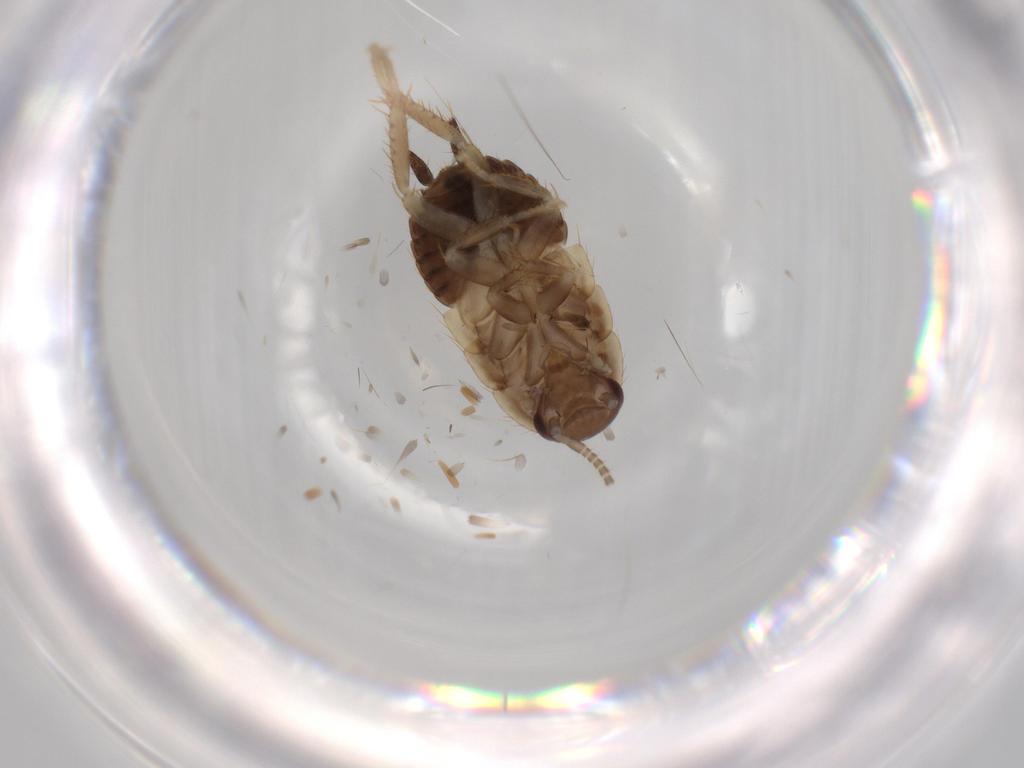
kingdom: Animalia
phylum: Arthropoda
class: Insecta
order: Blattodea
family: Ectobiidae
